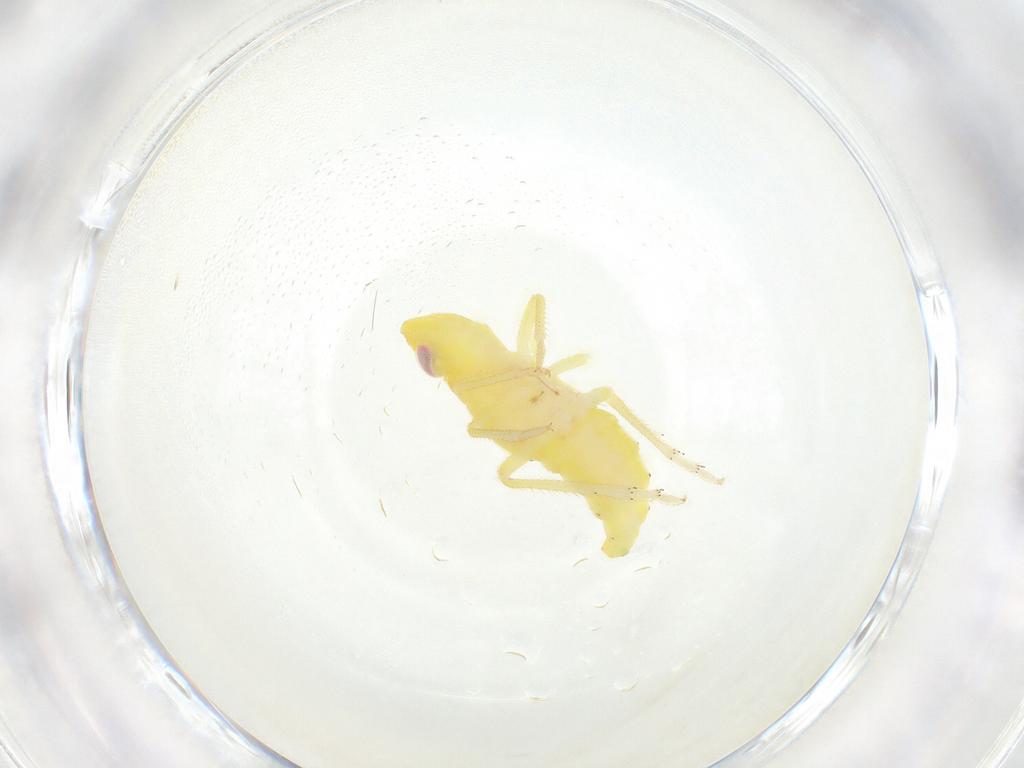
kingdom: Animalia
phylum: Arthropoda
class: Insecta
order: Hemiptera
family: Tropiduchidae
